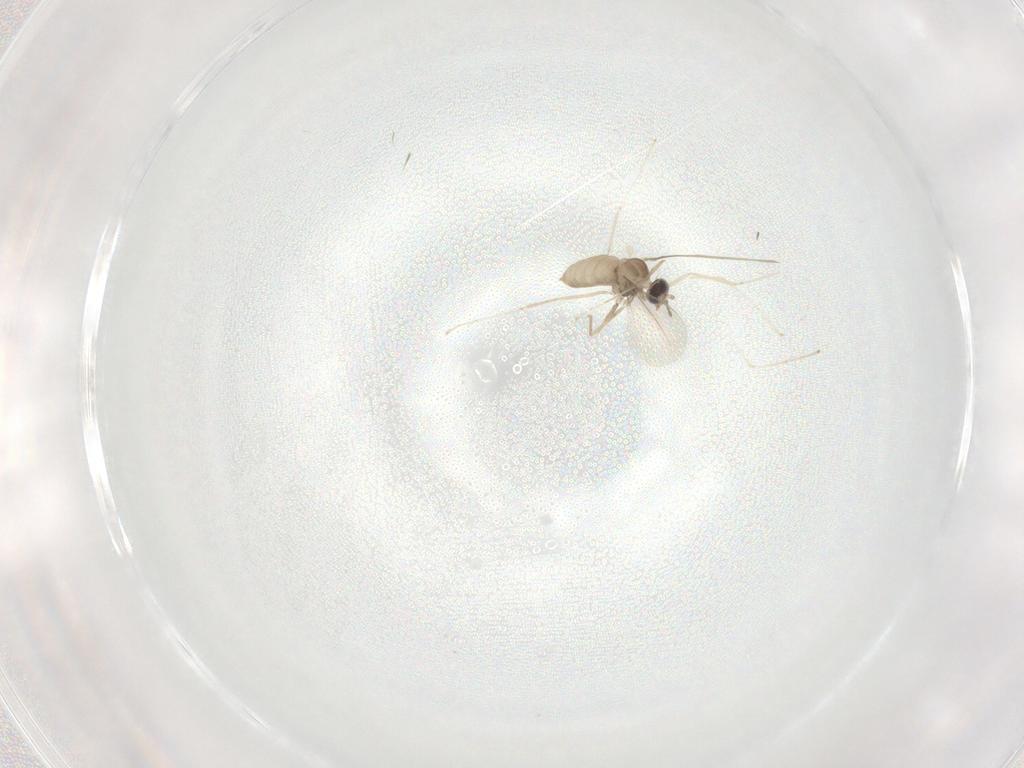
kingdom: Animalia
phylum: Arthropoda
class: Insecta
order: Diptera
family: Cecidomyiidae
